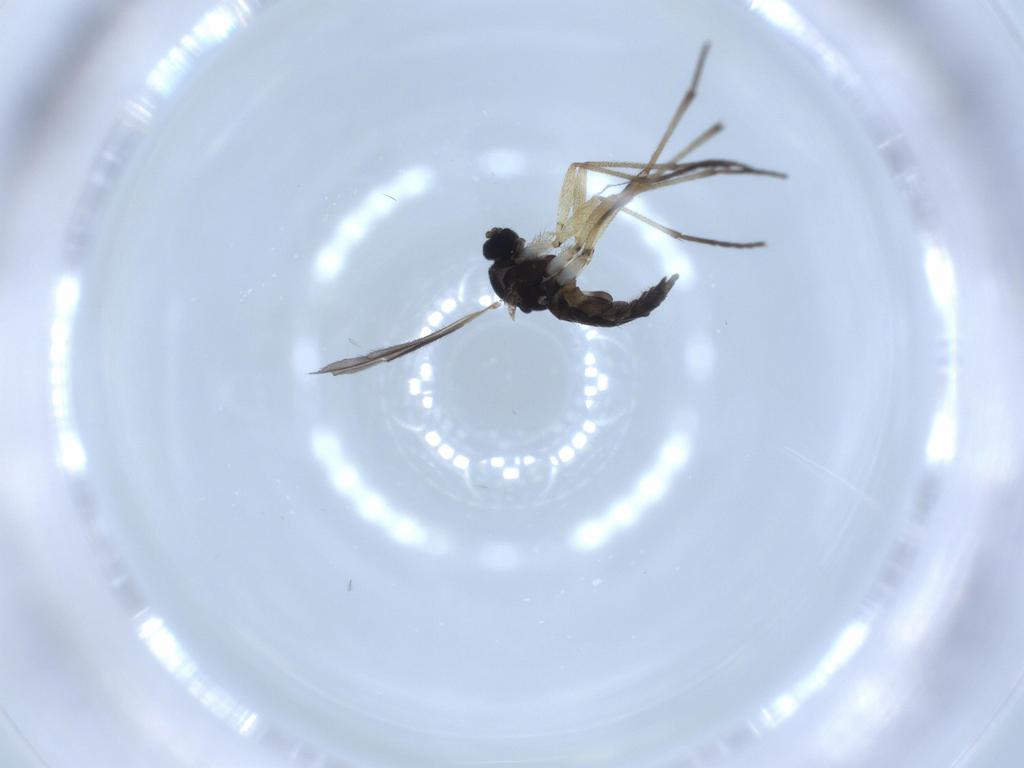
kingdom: Animalia
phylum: Arthropoda
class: Insecta
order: Diptera
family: Sciaridae
